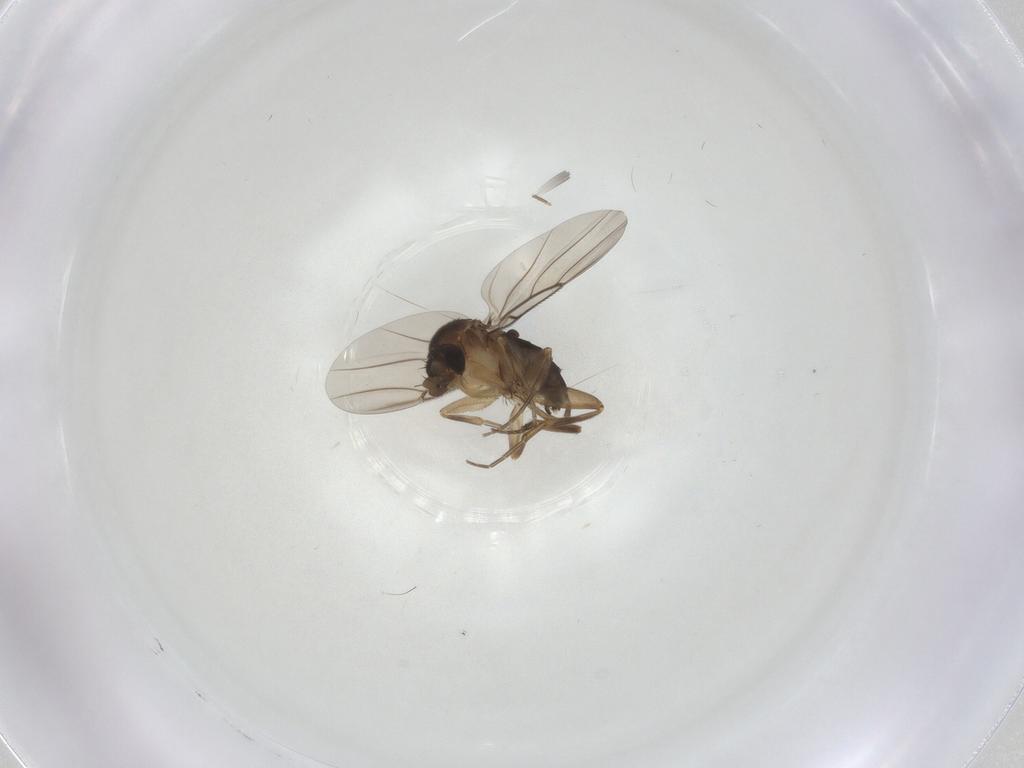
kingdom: Animalia
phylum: Arthropoda
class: Insecta
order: Diptera
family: Phoridae
